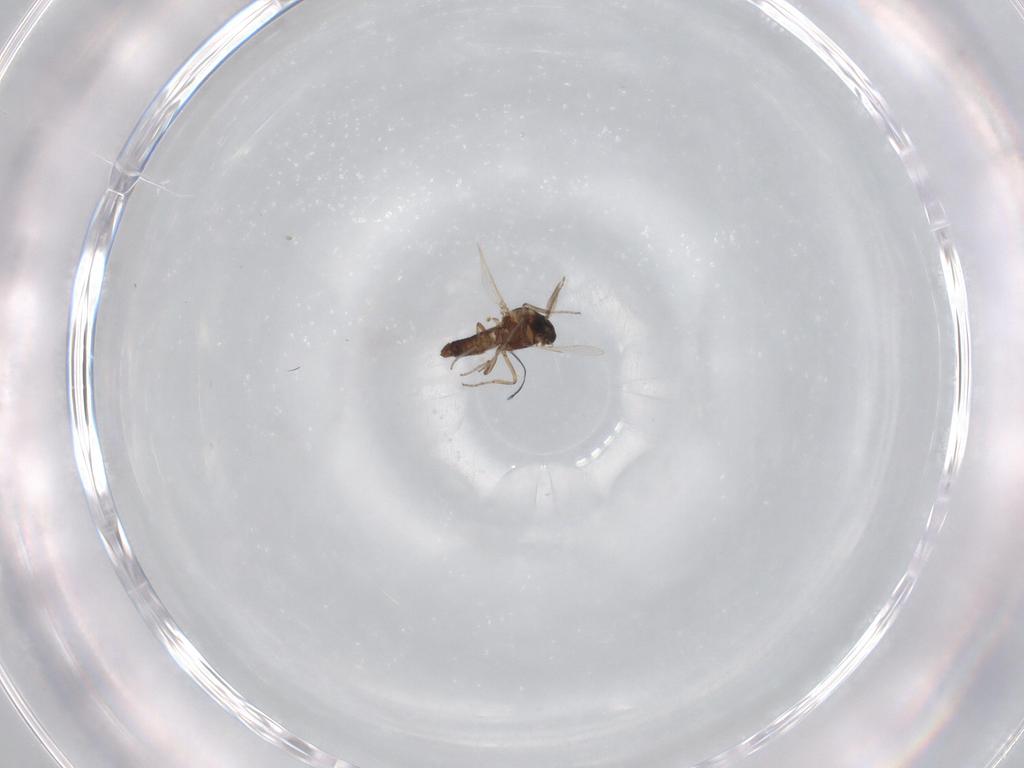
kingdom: Animalia
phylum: Arthropoda
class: Insecta
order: Diptera
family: Ceratopogonidae
